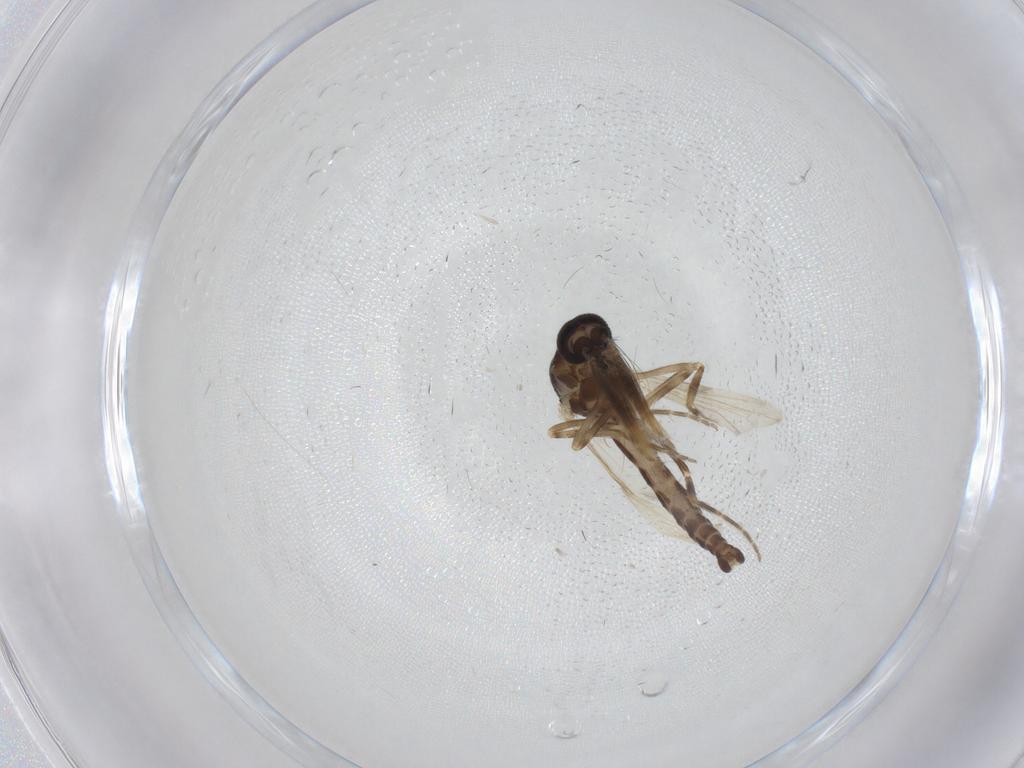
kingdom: Animalia
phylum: Arthropoda
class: Insecta
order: Diptera
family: Ceratopogonidae
